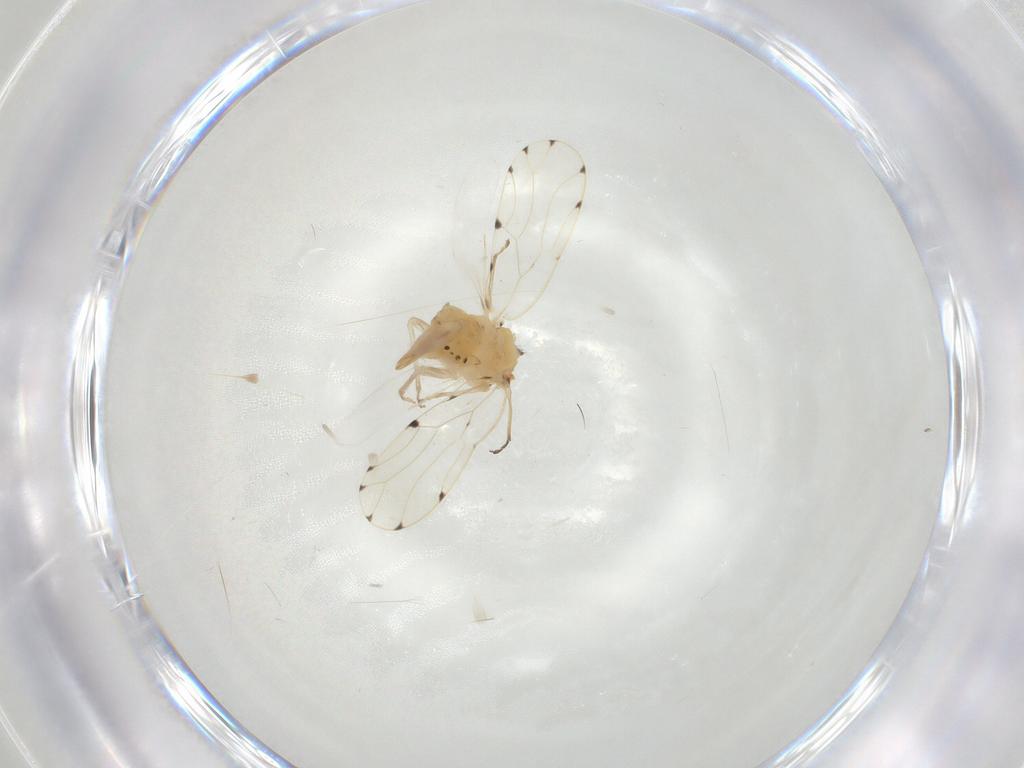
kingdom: Animalia
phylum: Arthropoda
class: Insecta
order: Hemiptera
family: Psylloidea_incertae_sedis
